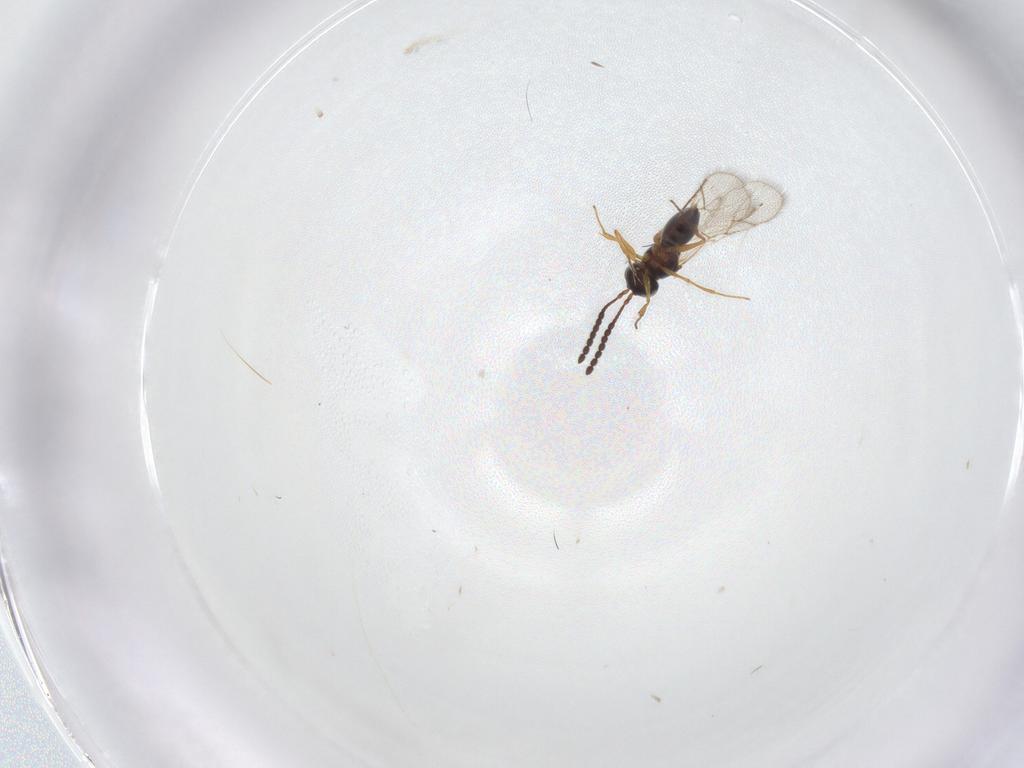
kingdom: Animalia
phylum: Arthropoda
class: Insecta
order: Hymenoptera
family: Figitidae
